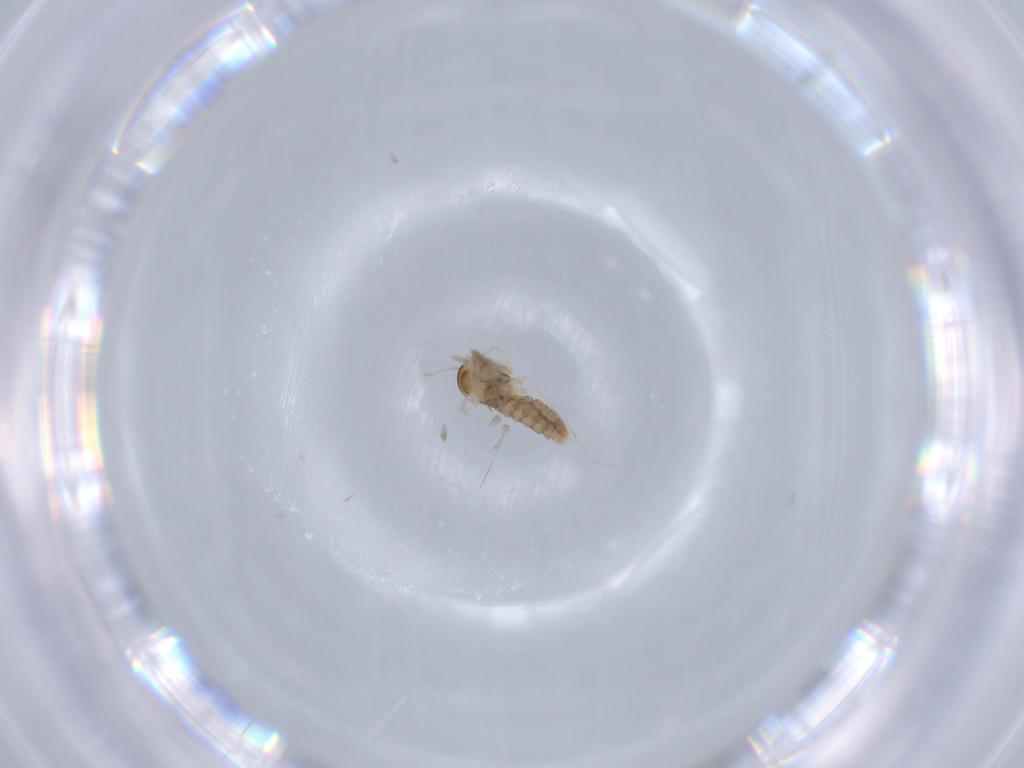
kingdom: Animalia
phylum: Arthropoda
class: Insecta
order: Diptera
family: Cecidomyiidae
